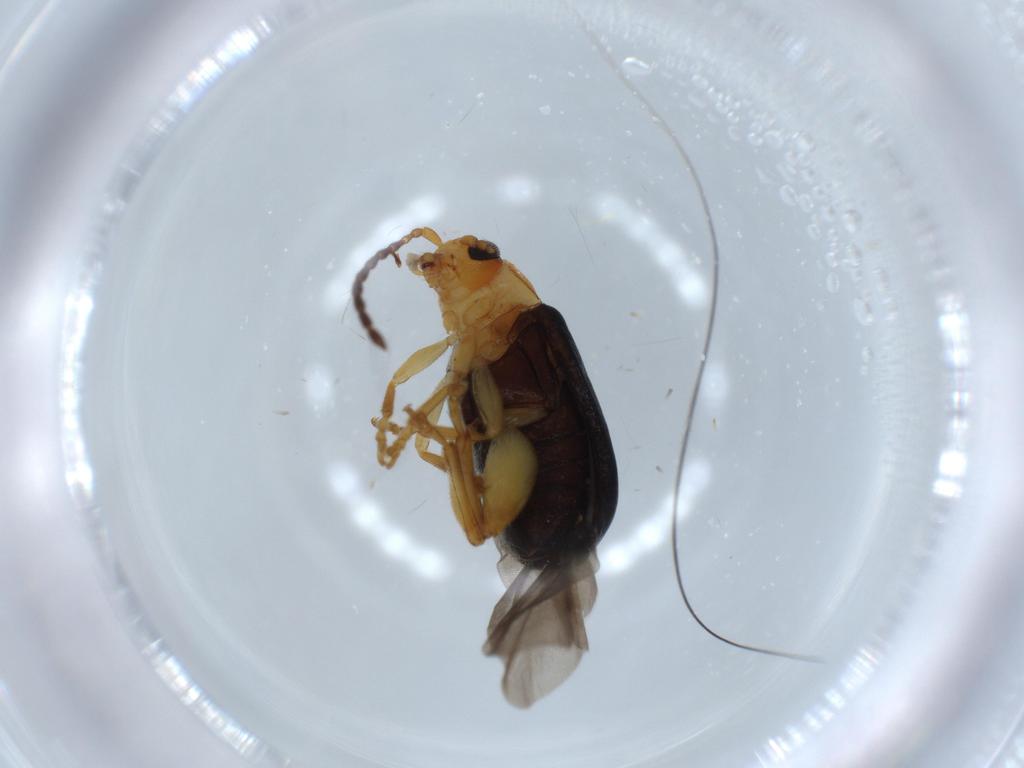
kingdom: Animalia
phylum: Arthropoda
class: Insecta
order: Coleoptera
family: Chrysomelidae
